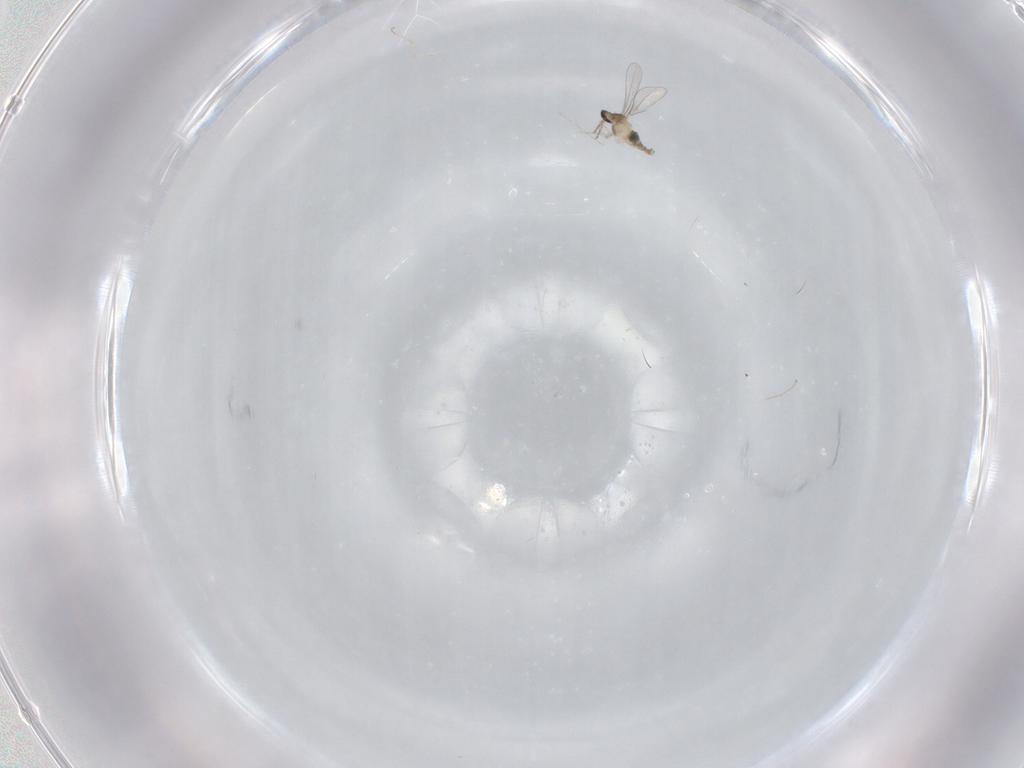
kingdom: Animalia
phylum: Arthropoda
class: Insecta
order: Diptera
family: Cecidomyiidae
